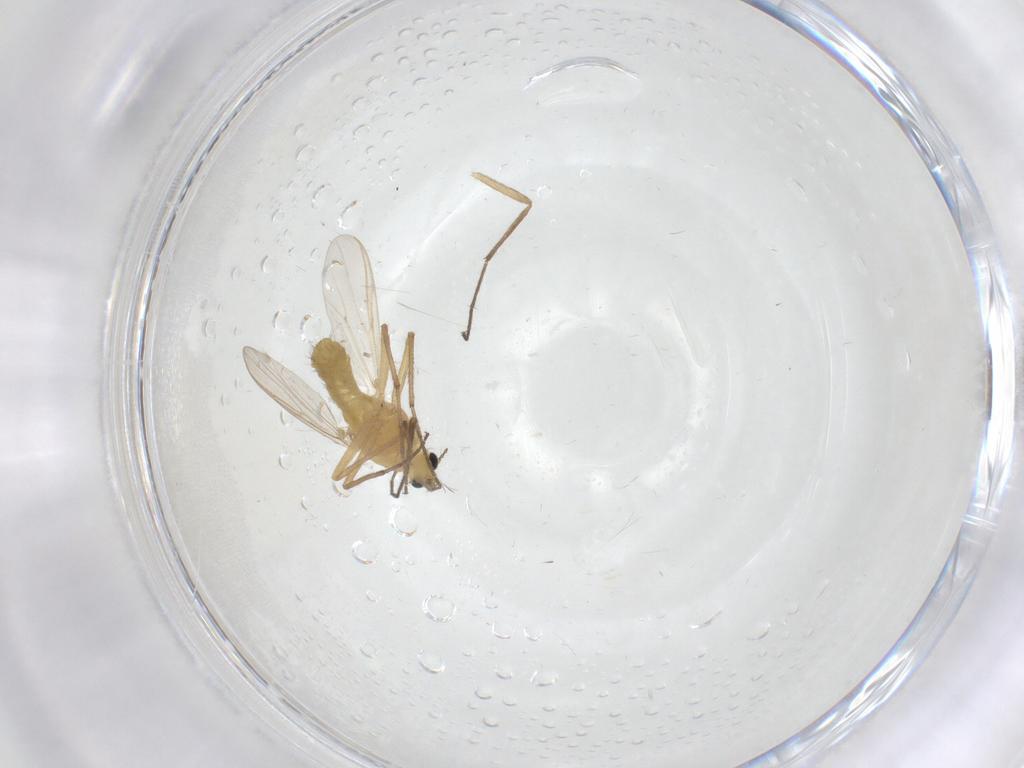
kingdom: Animalia
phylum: Arthropoda
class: Insecta
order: Diptera
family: Chironomidae
